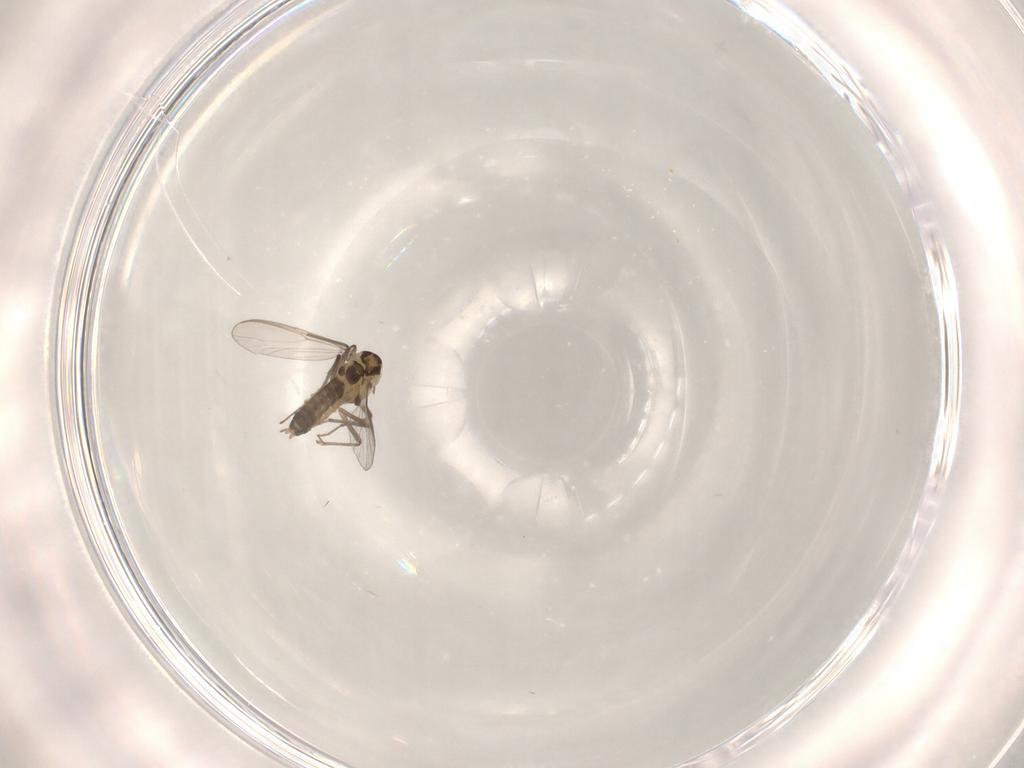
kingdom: Animalia
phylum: Arthropoda
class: Insecta
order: Diptera
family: Chironomidae
